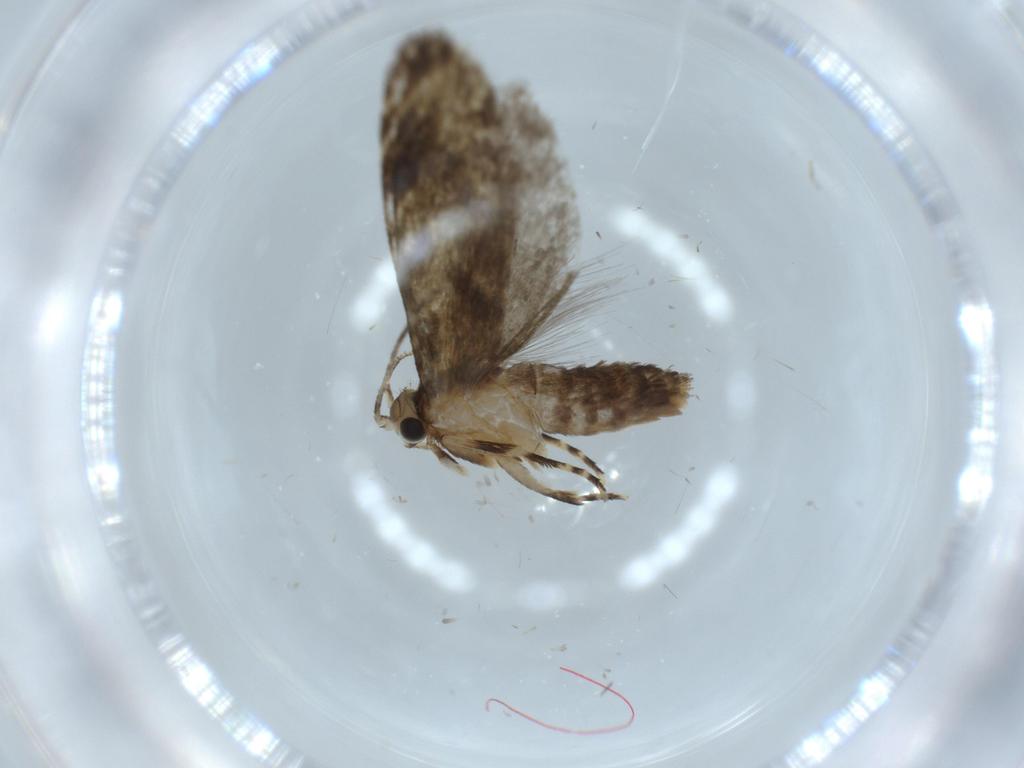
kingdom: Animalia
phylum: Arthropoda
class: Insecta
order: Lepidoptera
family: Tineidae
